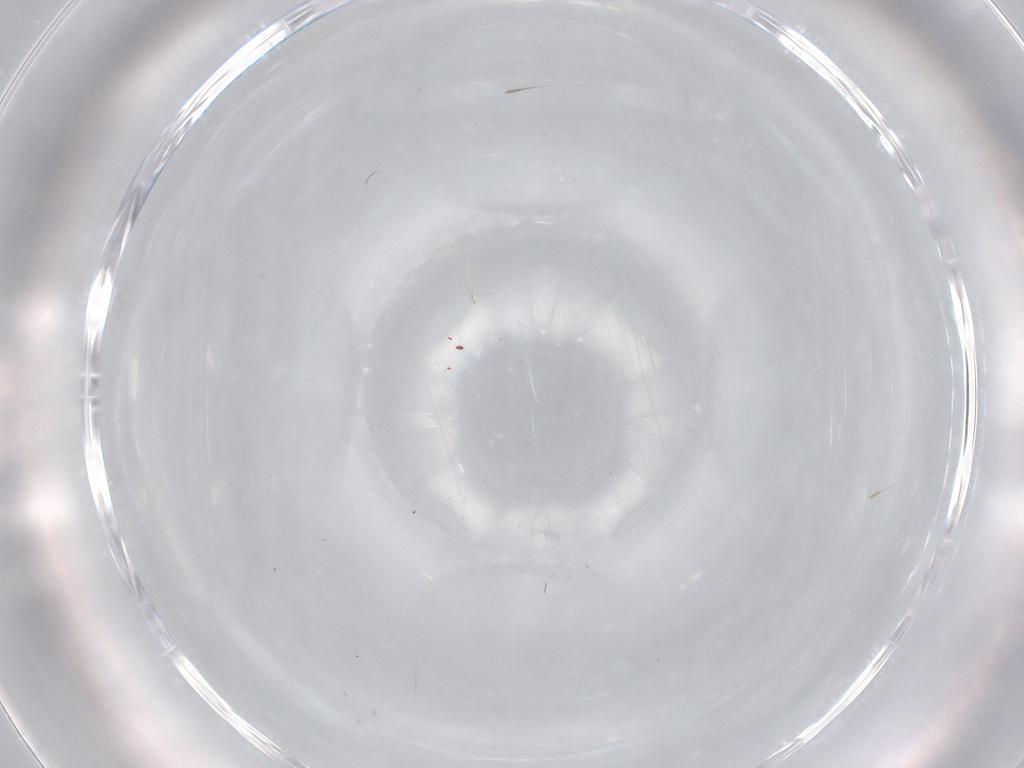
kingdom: Animalia
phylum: Arthropoda
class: Insecta
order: Diptera
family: Cecidomyiidae
